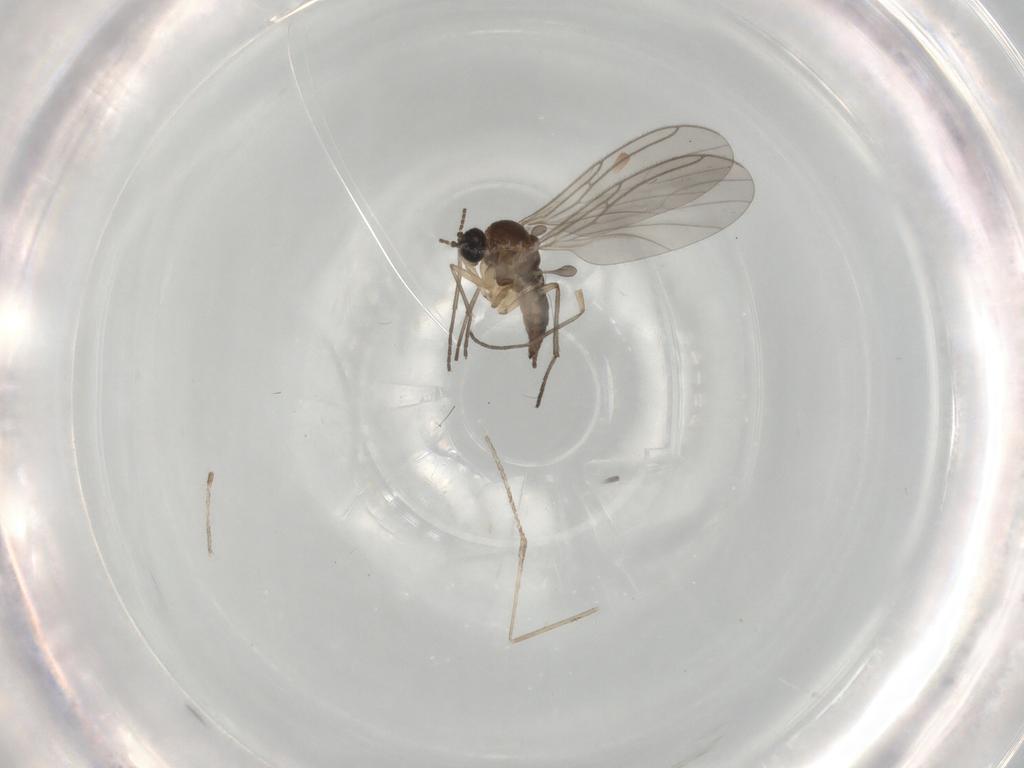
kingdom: Animalia
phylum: Arthropoda
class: Insecta
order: Diptera
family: Sciaridae
